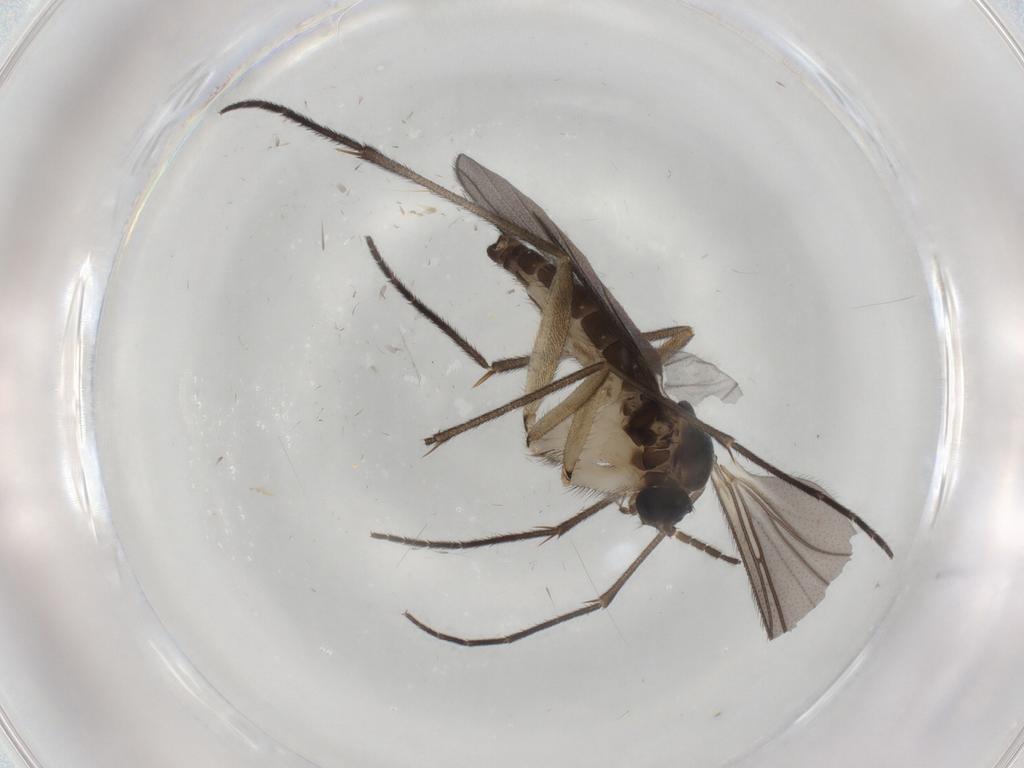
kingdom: Animalia
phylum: Arthropoda
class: Insecta
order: Diptera
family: Sciaridae
